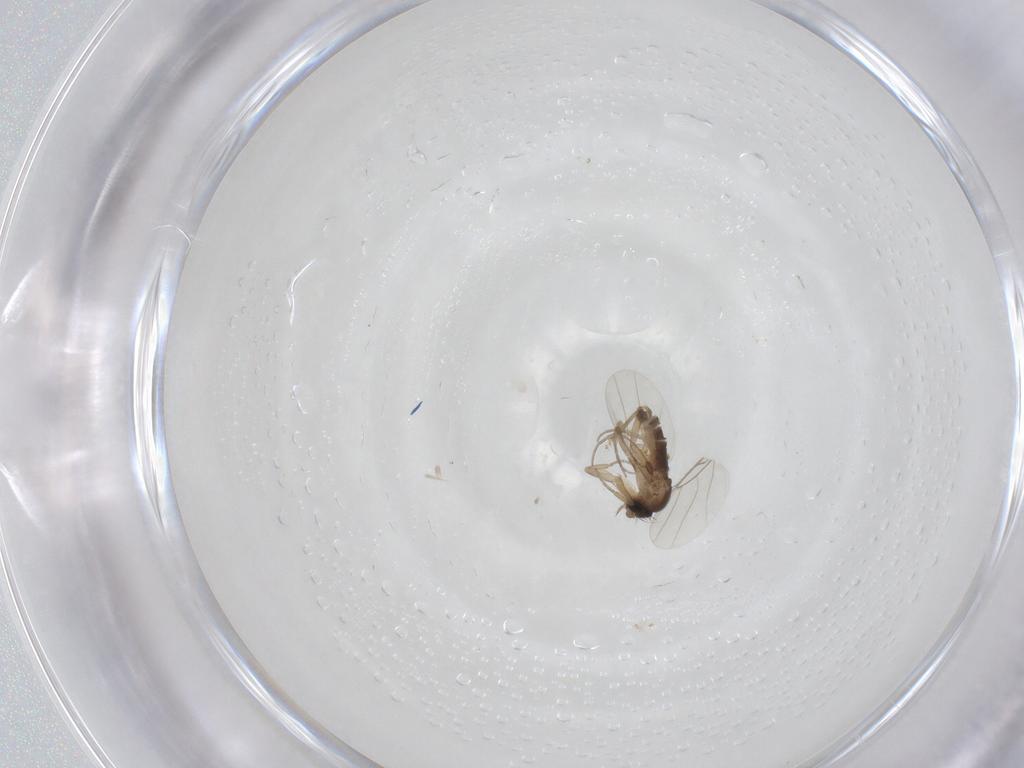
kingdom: Animalia
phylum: Arthropoda
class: Insecta
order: Diptera
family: Phoridae
